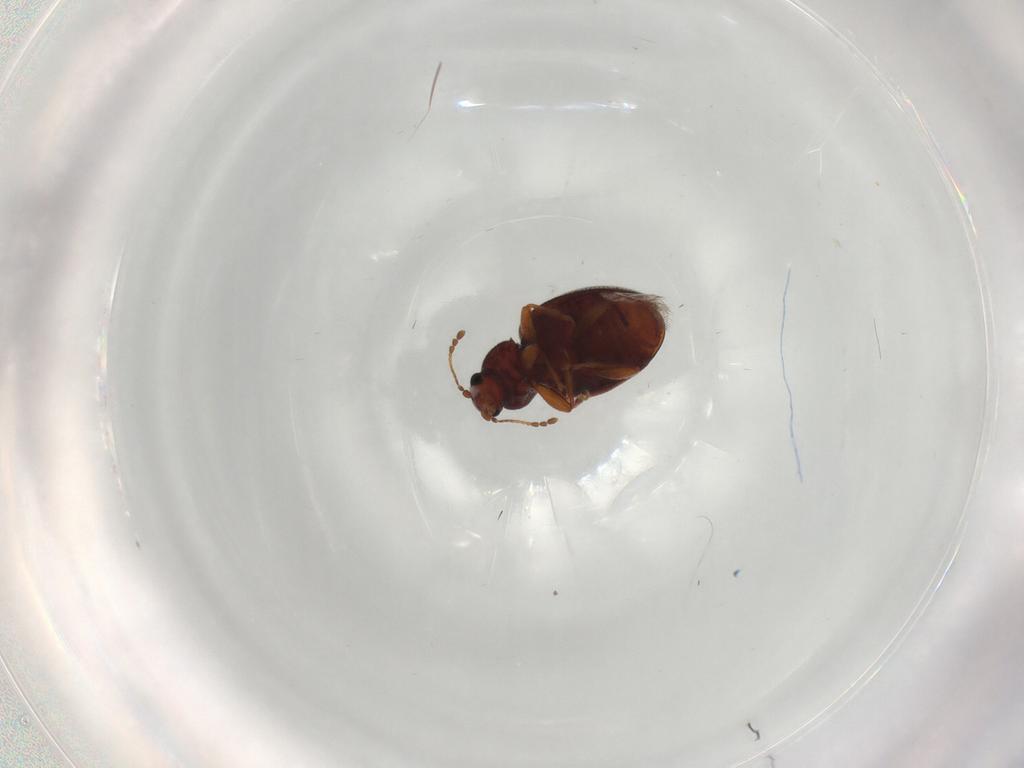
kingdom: Animalia
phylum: Arthropoda
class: Insecta
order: Coleoptera
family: Latridiidae
